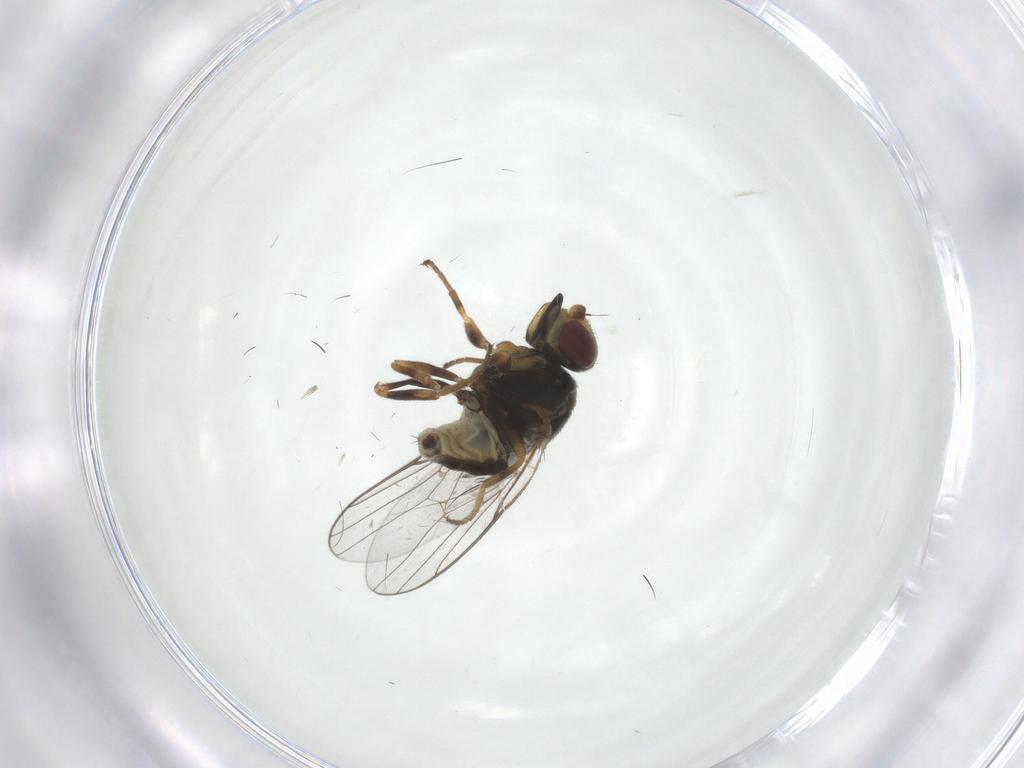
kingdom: Animalia
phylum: Arthropoda
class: Insecta
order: Diptera
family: Chloropidae
